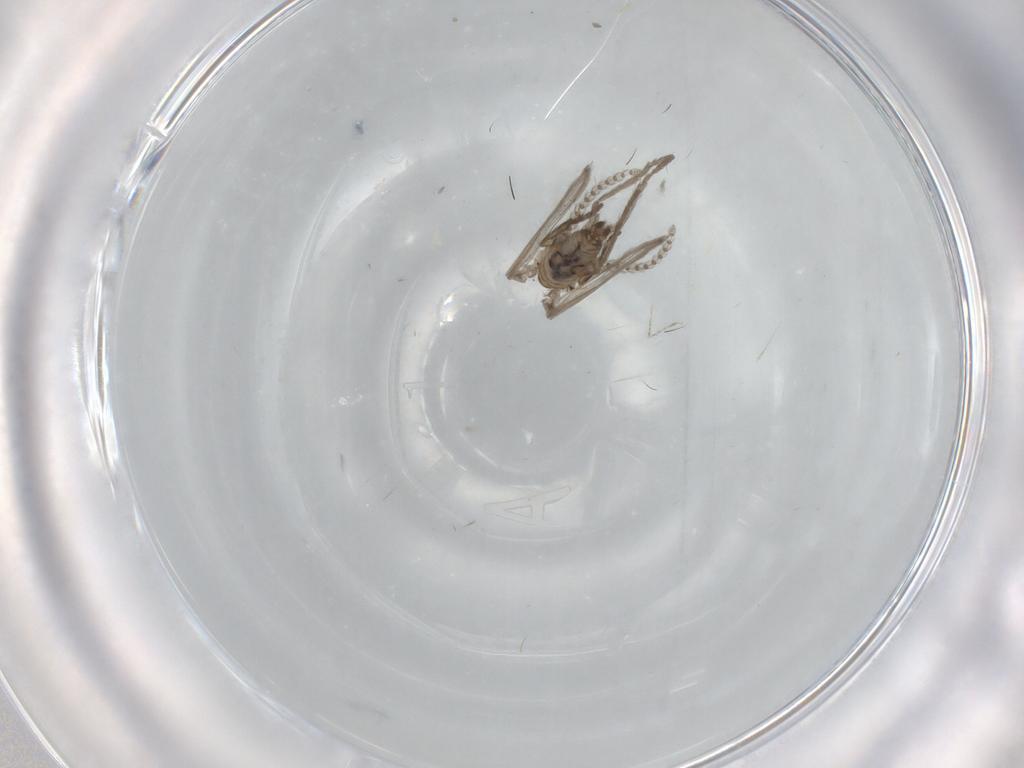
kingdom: Animalia
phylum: Arthropoda
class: Insecta
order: Diptera
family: Psychodidae
